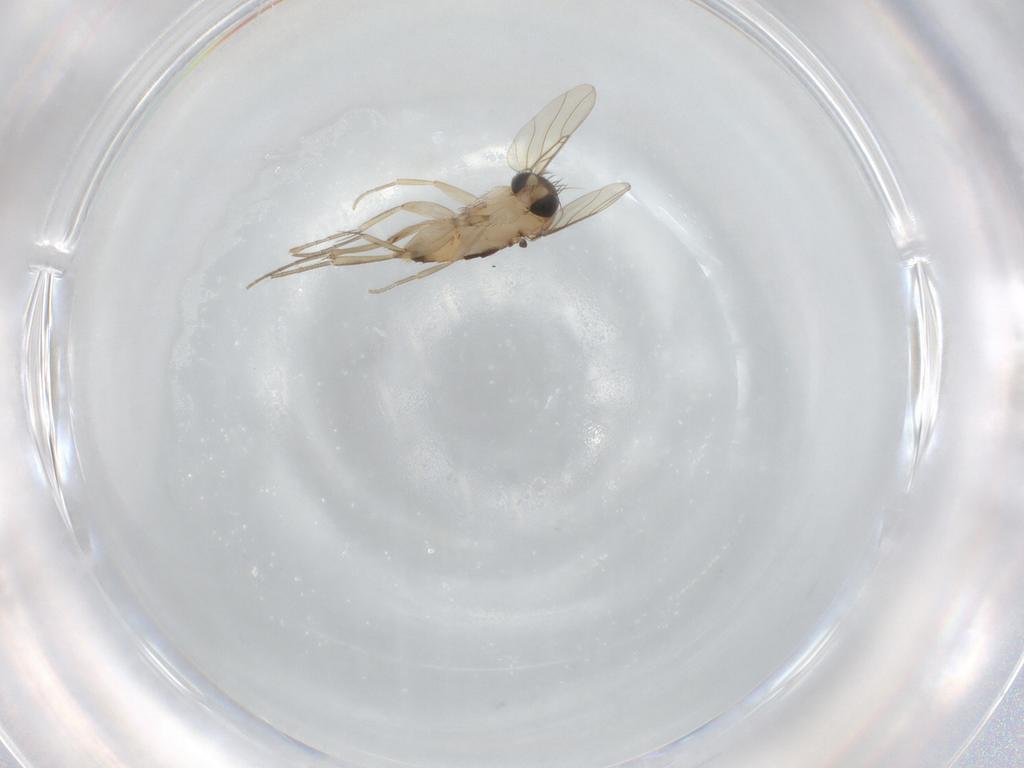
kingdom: Animalia
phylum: Arthropoda
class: Insecta
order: Diptera
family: Phoridae
